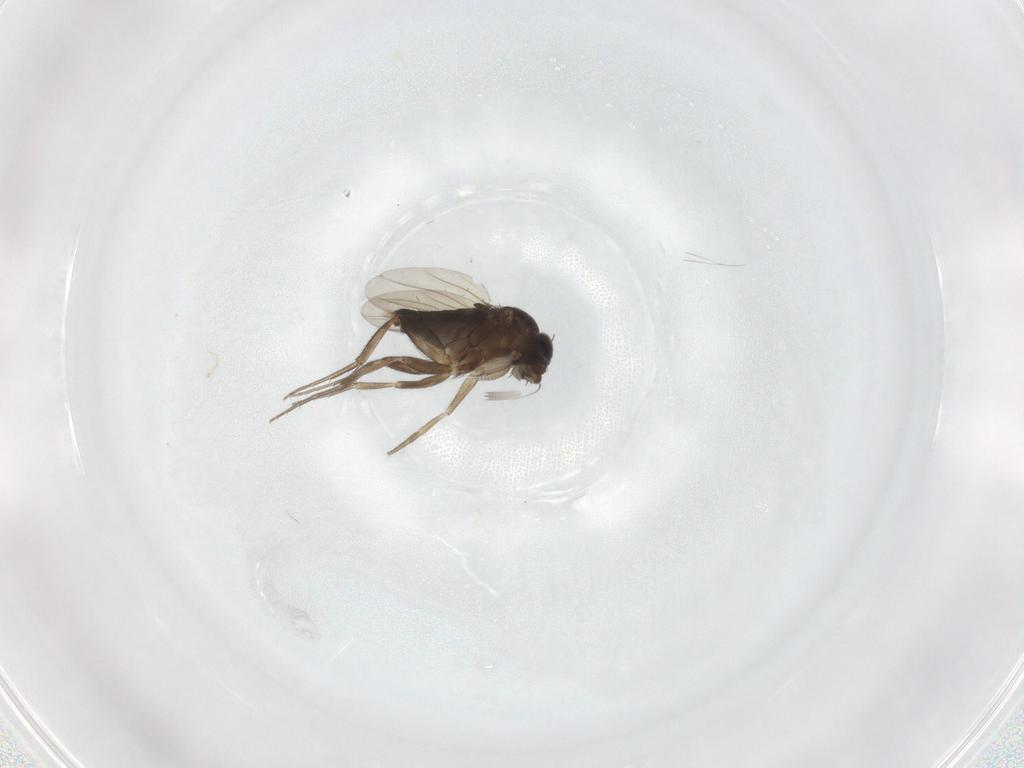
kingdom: Animalia
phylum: Arthropoda
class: Insecta
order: Diptera
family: Phoridae
